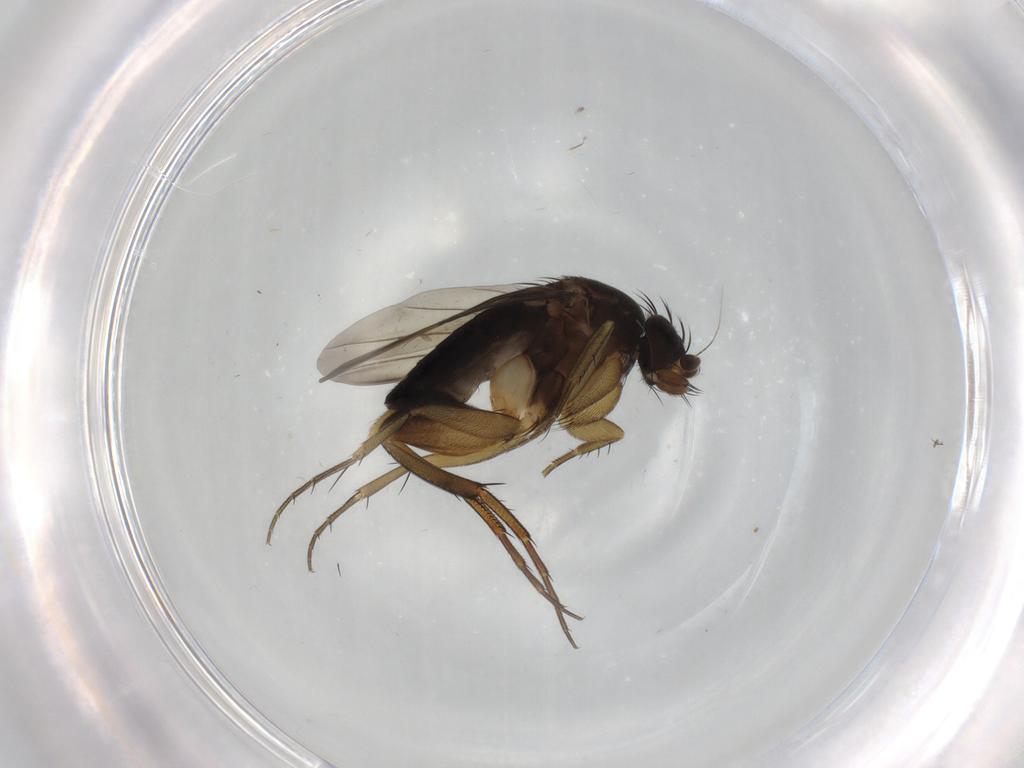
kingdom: Animalia
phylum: Arthropoda
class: Insecta
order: Diptera
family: Phoridae
